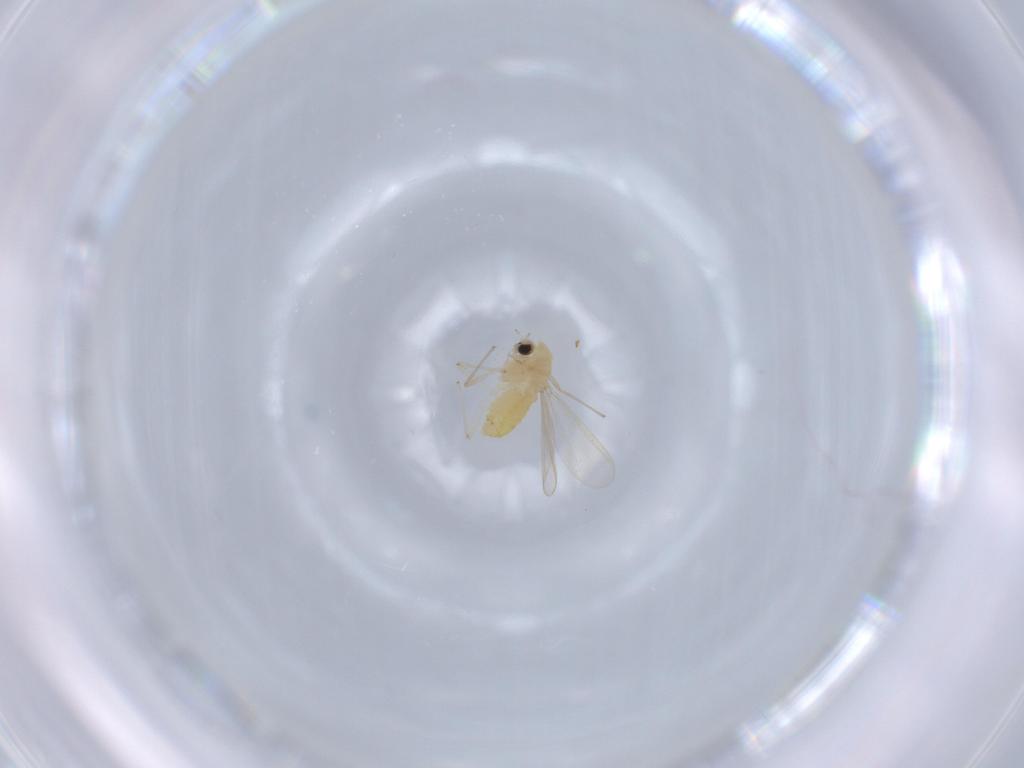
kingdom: Animalia
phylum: Arthropoda
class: Insecta
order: Diptera
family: Chironomidae
